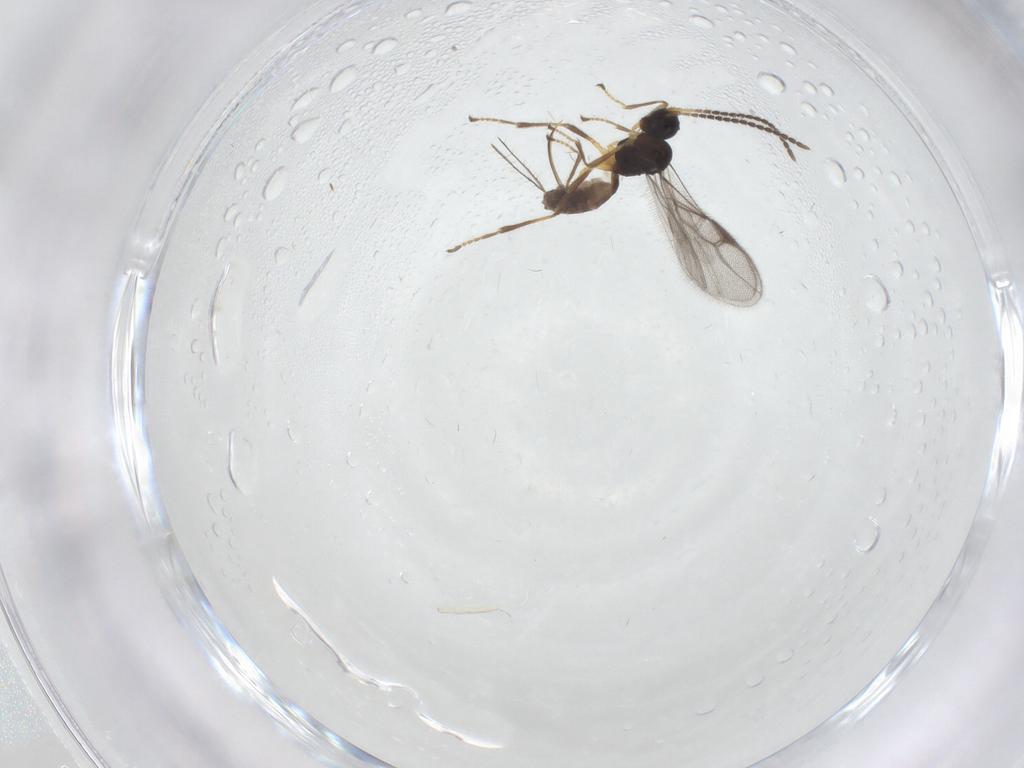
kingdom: Animalia
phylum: Arthropoda
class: Insecta
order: Hymenoptera
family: Braconidae
